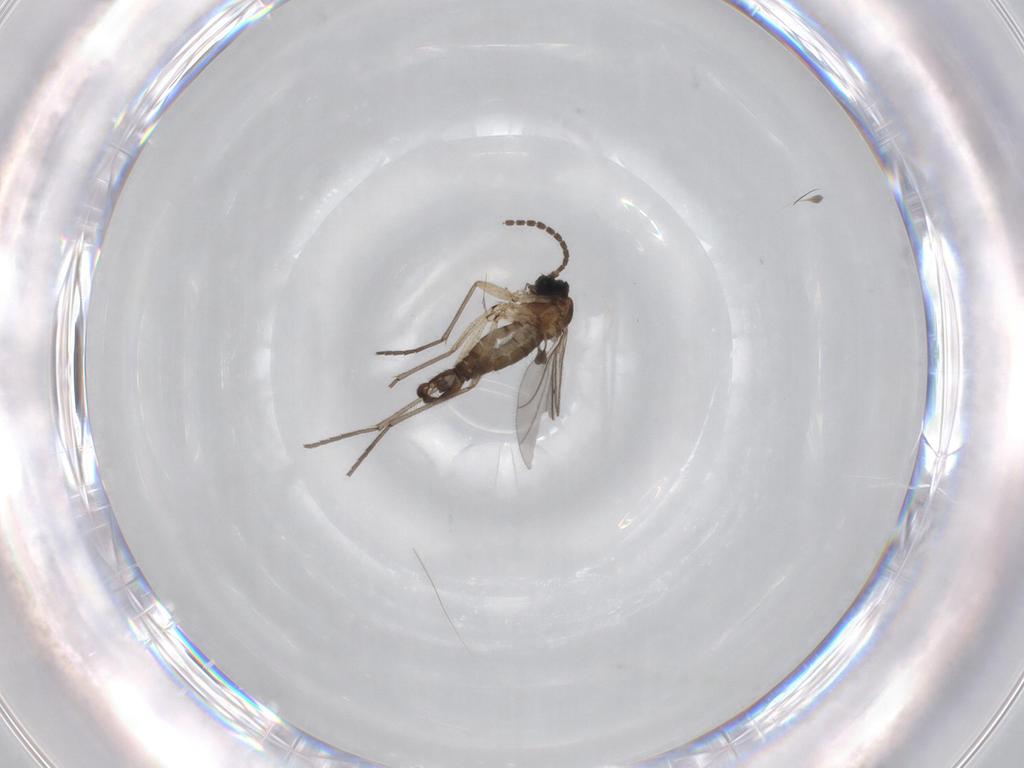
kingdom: Animalia
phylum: Arthropoda
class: Insecta
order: Diptera
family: Sciaridae
